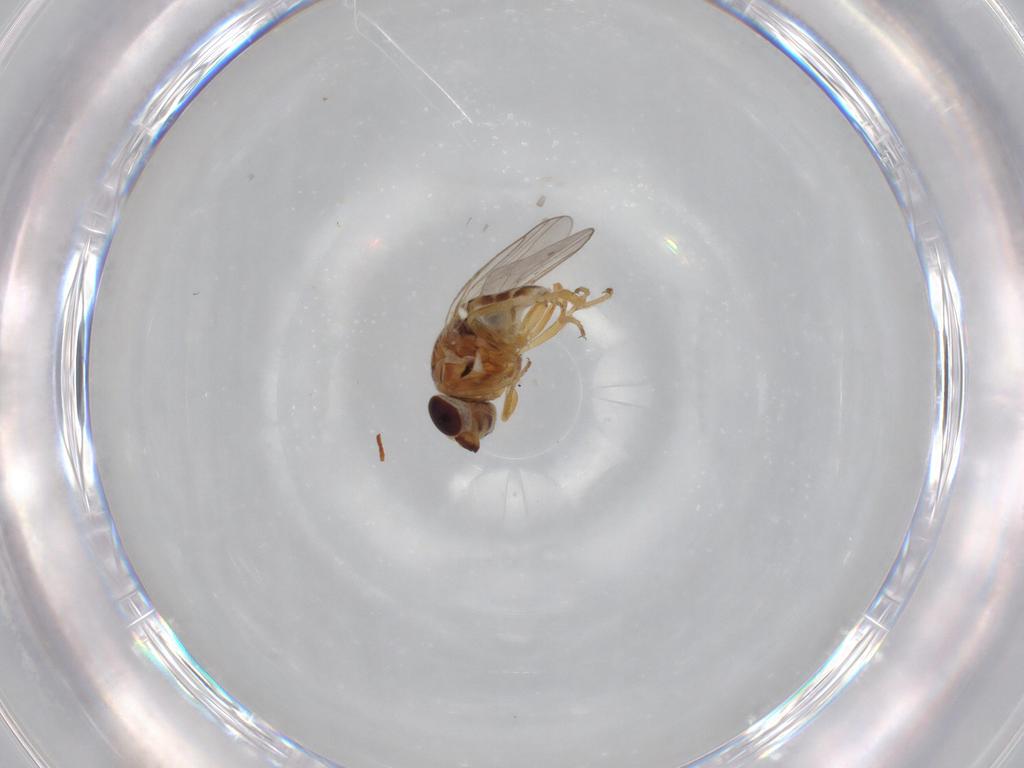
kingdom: Animalia
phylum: Arthropoda
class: Insecta
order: Diptera
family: Chloropidae
